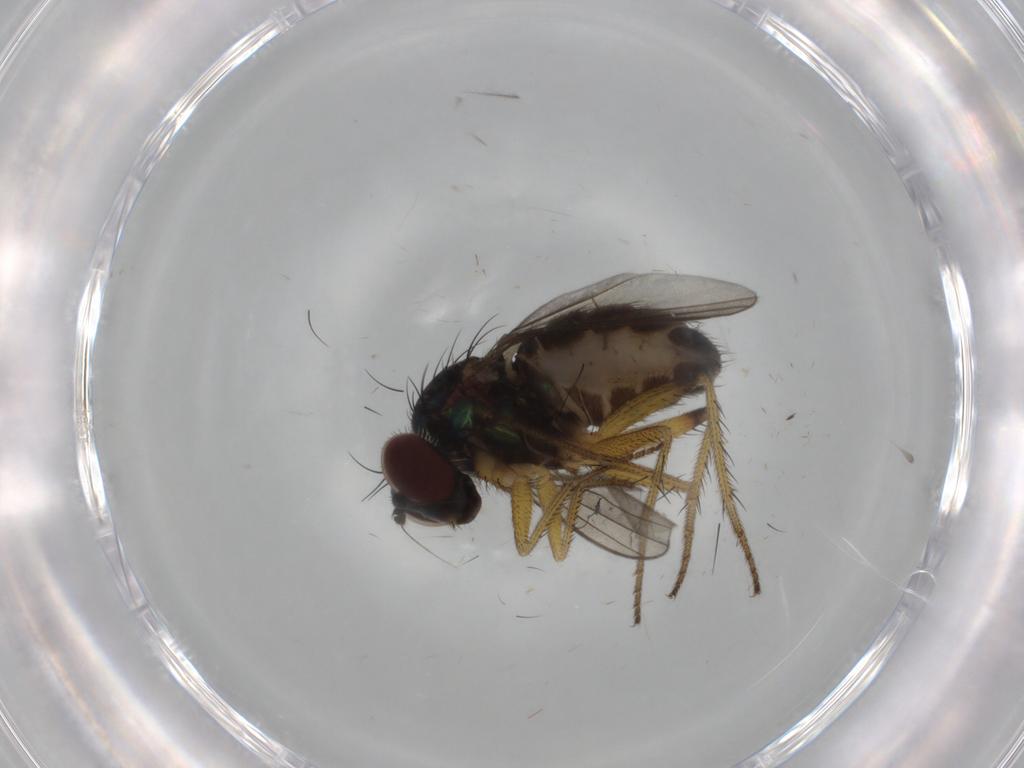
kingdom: Animalia
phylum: Arthropoda
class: Insecta
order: Diptera
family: Dolichopodidae
